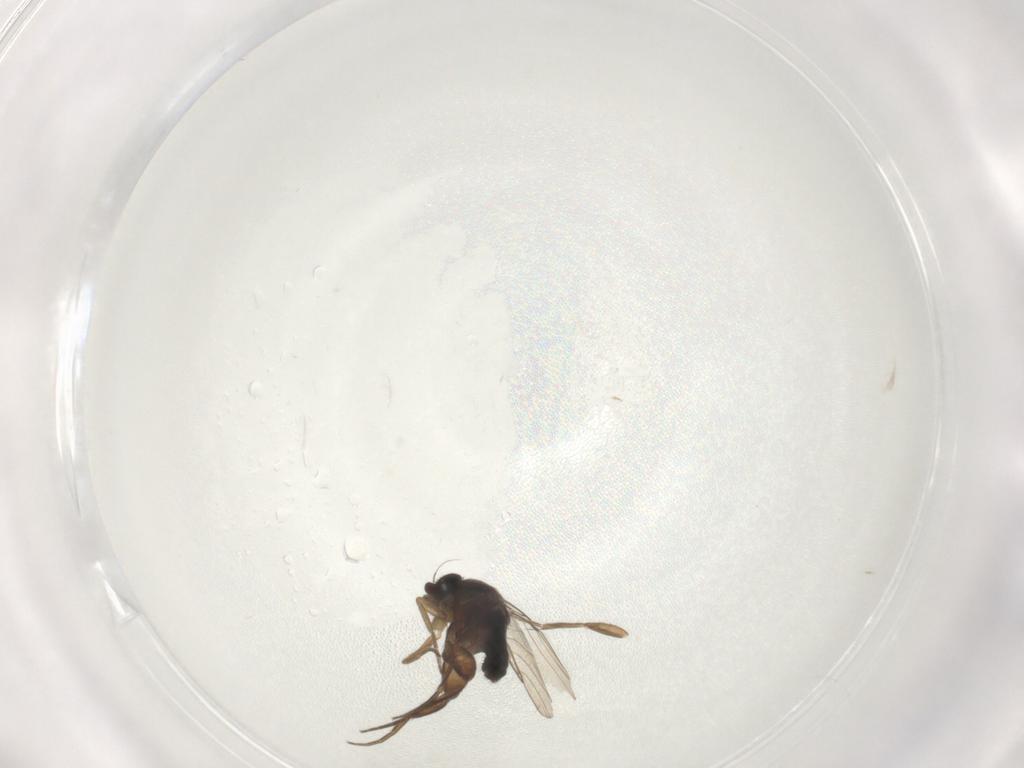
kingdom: Animalia
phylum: Arthropoda
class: Insecta
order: Diptera
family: Phoridae
